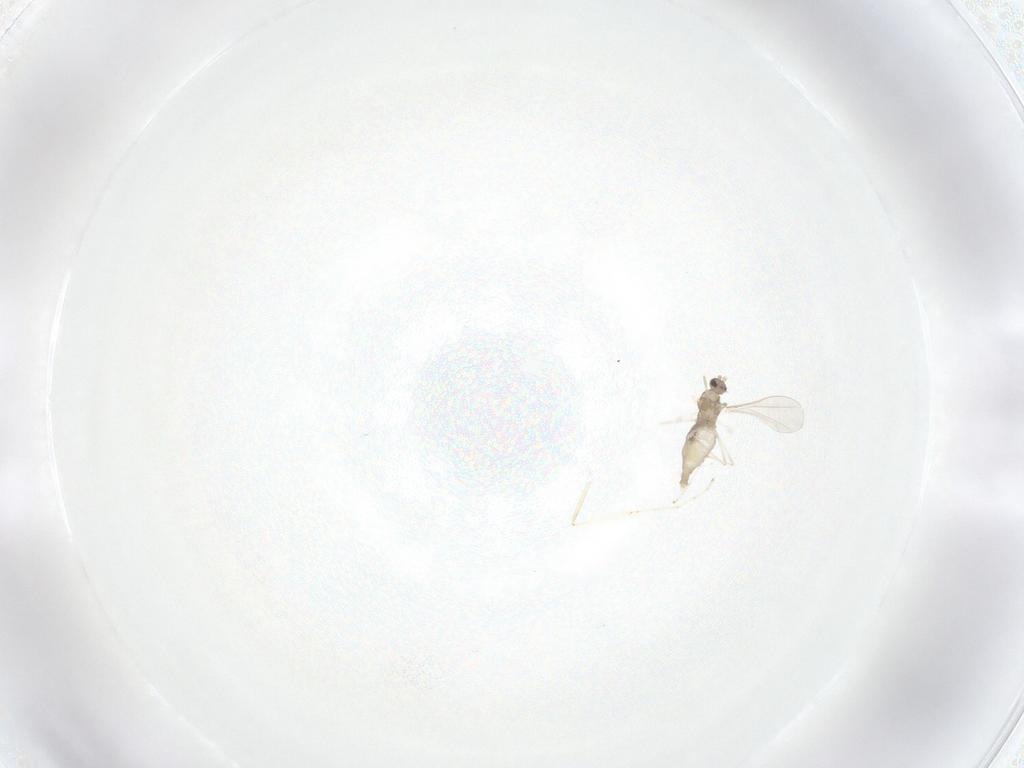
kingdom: Animalia
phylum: Arthropoda
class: Insecta
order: Diptera
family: Cecidomyiidae
